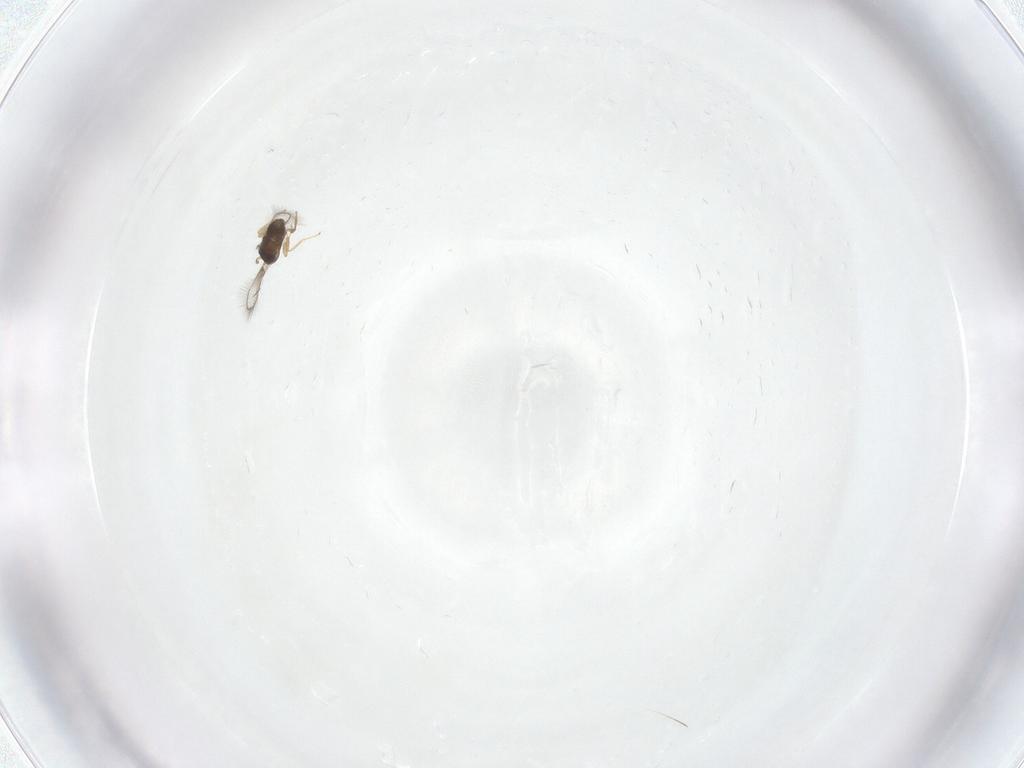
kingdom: Animalia
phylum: Arthropoda
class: Insecta
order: Hymenoptera
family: Mymaridae
